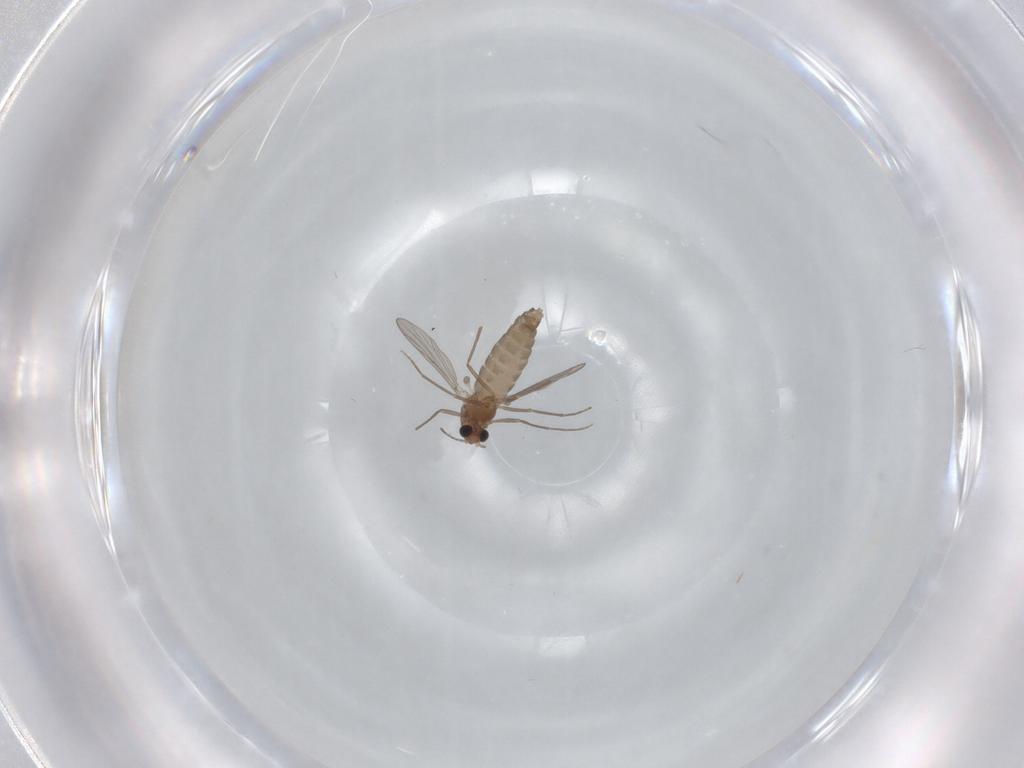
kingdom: Animalia
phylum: Arthropoda
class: Insecta
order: Diptera
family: Chironomidae
